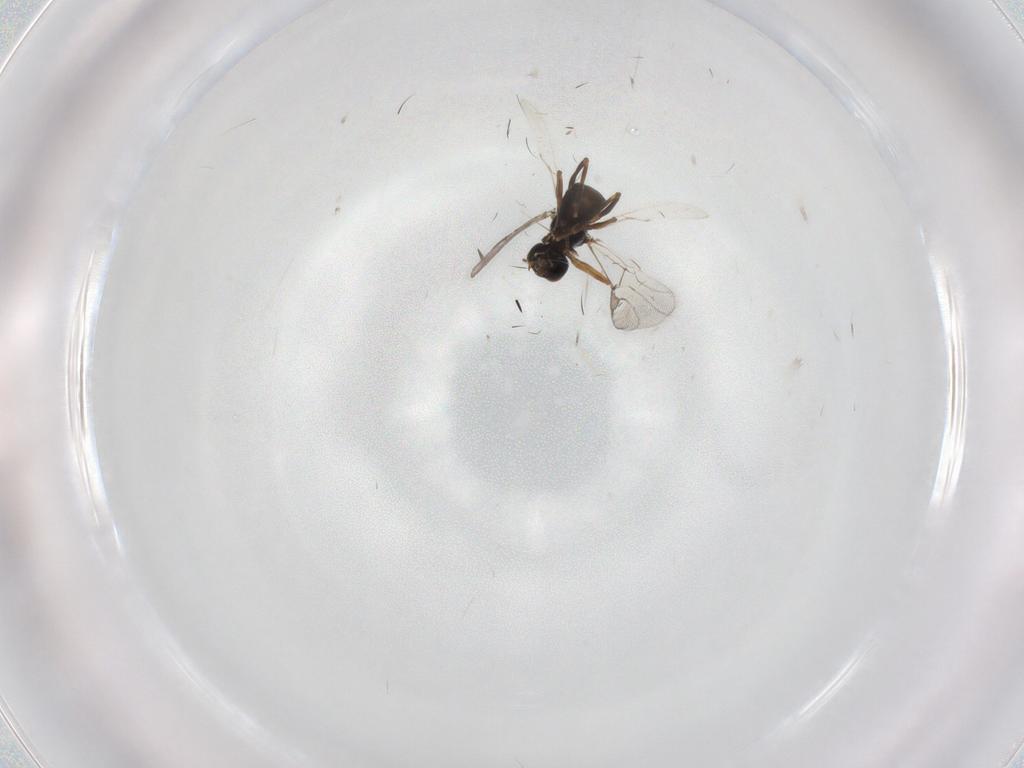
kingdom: Animalia
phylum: Arthropoda
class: Insecta
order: Hymenoptera
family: Braconidae
